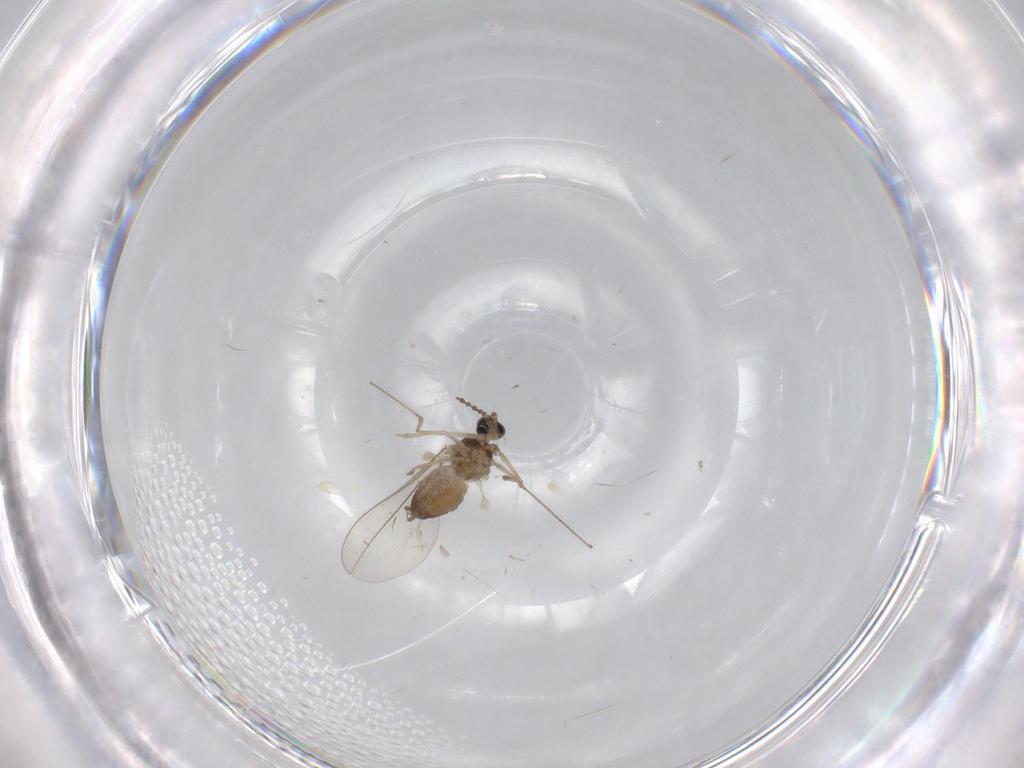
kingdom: Animalia
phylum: Arthropoda
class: Insecta
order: Diptera
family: Cecidomyiidae
